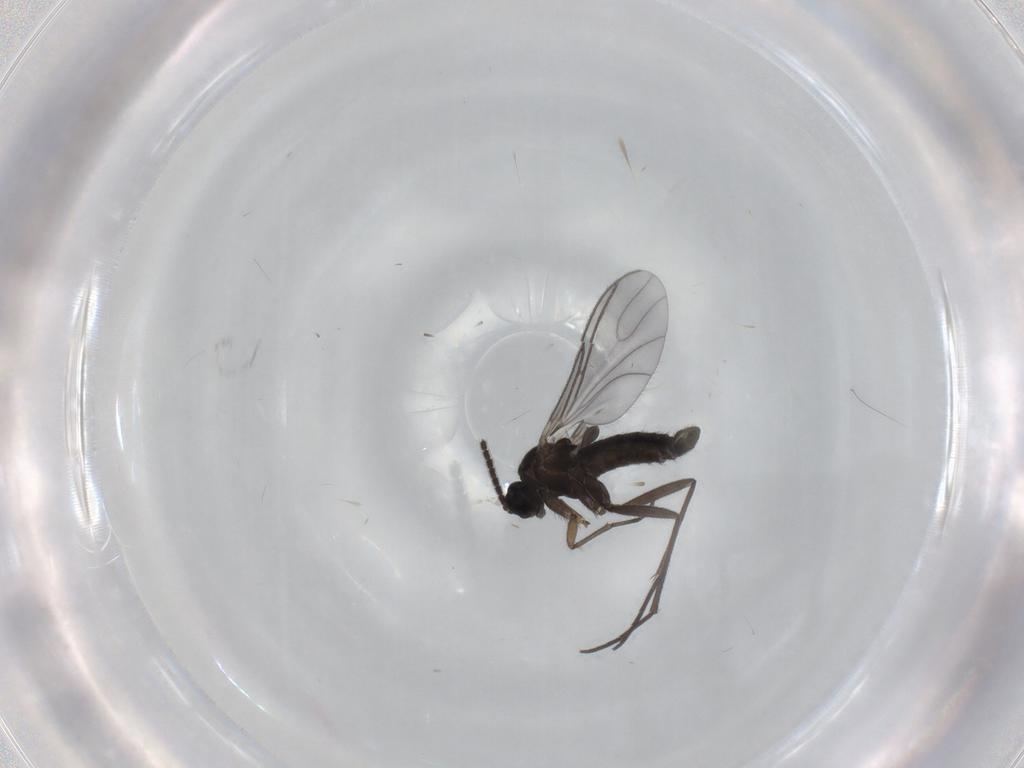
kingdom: Animalia
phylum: Arthropoda
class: Insecta
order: Diptera
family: Sciaridae
